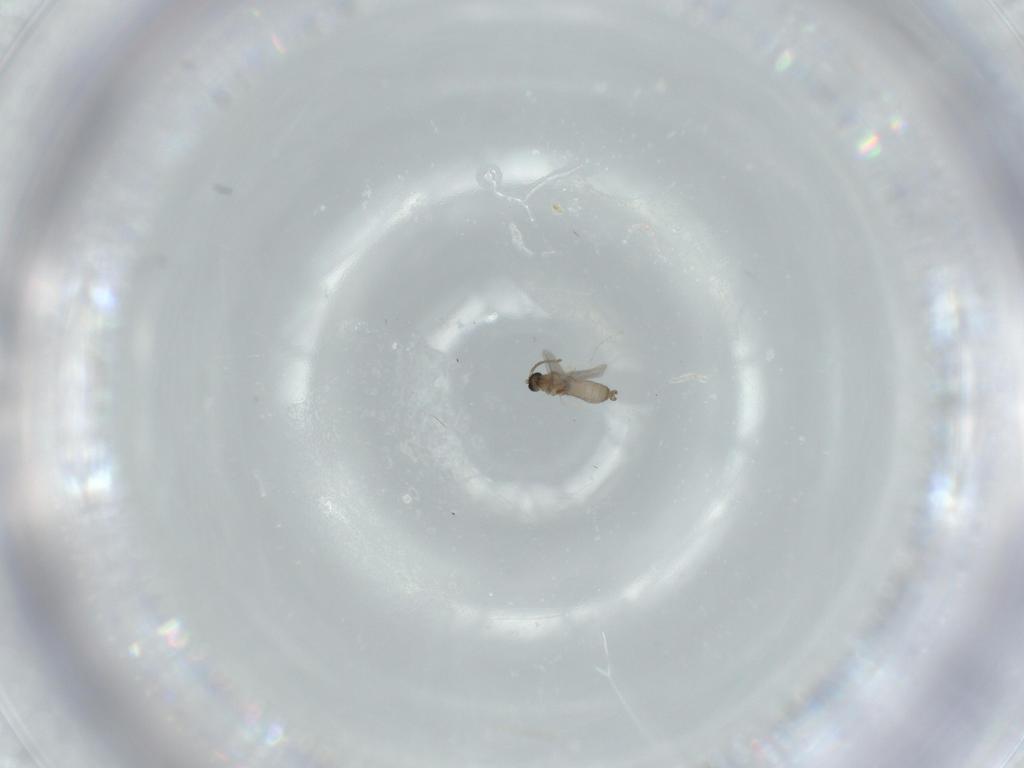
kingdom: Animalia
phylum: Arthropoda
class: Insecta
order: Diptera
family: Cecidomyiidae
